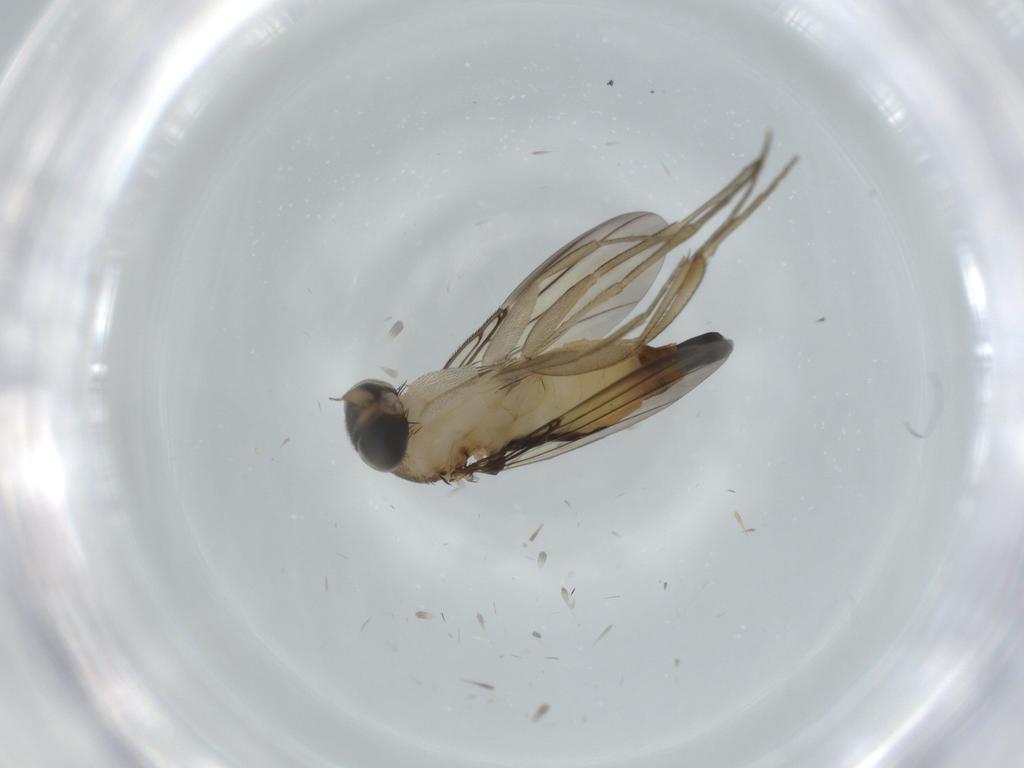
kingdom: Animalia
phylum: Arthropoda
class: Insecta
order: Diptera
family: Phoridae
